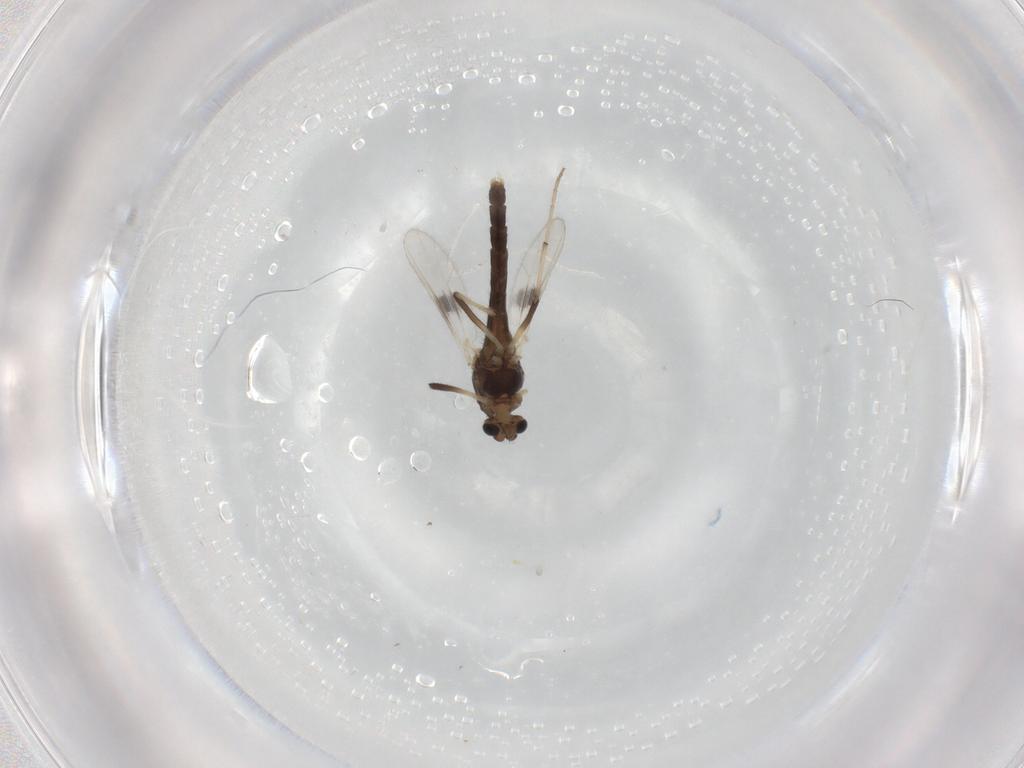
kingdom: Animalia
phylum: Arthropoda
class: Insecta
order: Diptera
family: Chironomidae
